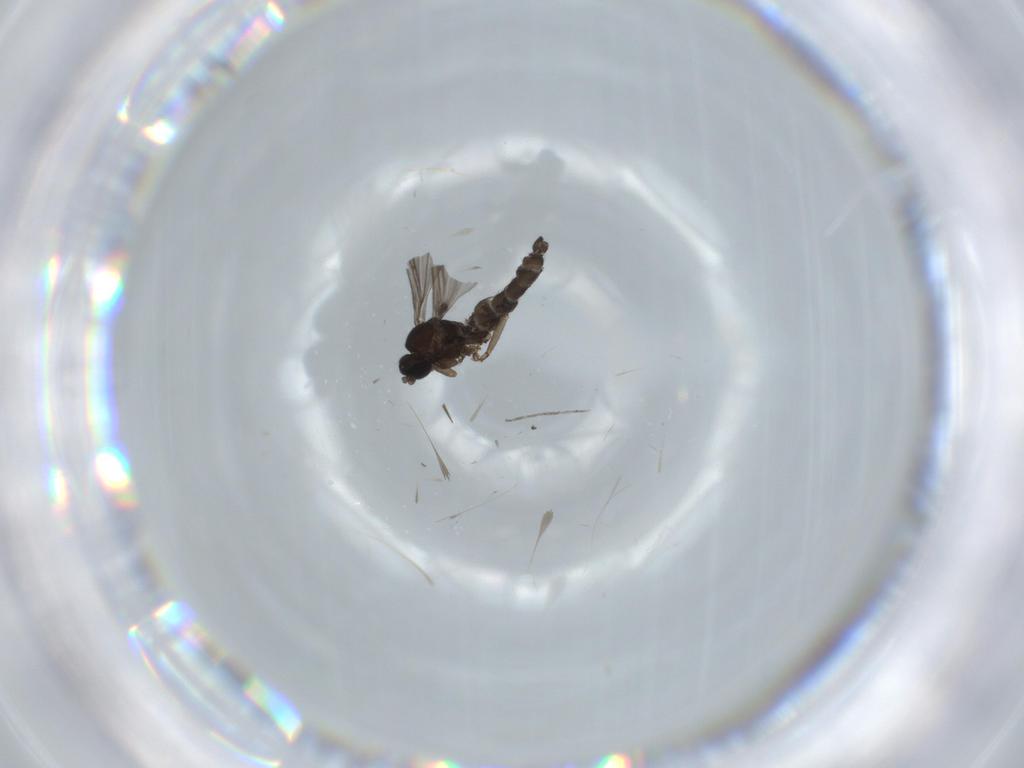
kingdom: Animalia
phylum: Arthropoda
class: Insecta
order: Diptera
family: Sciaridae
